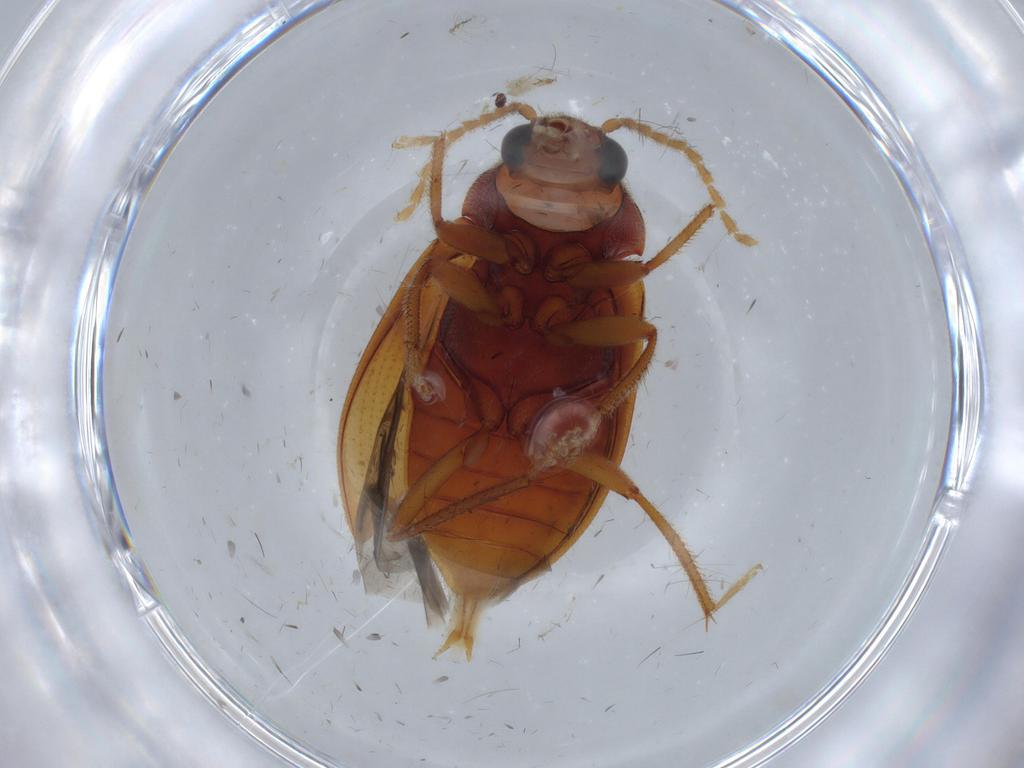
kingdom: Animalia
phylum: Arthropoda
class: Insecta
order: Coleoptera
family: Ptilodactylidae
